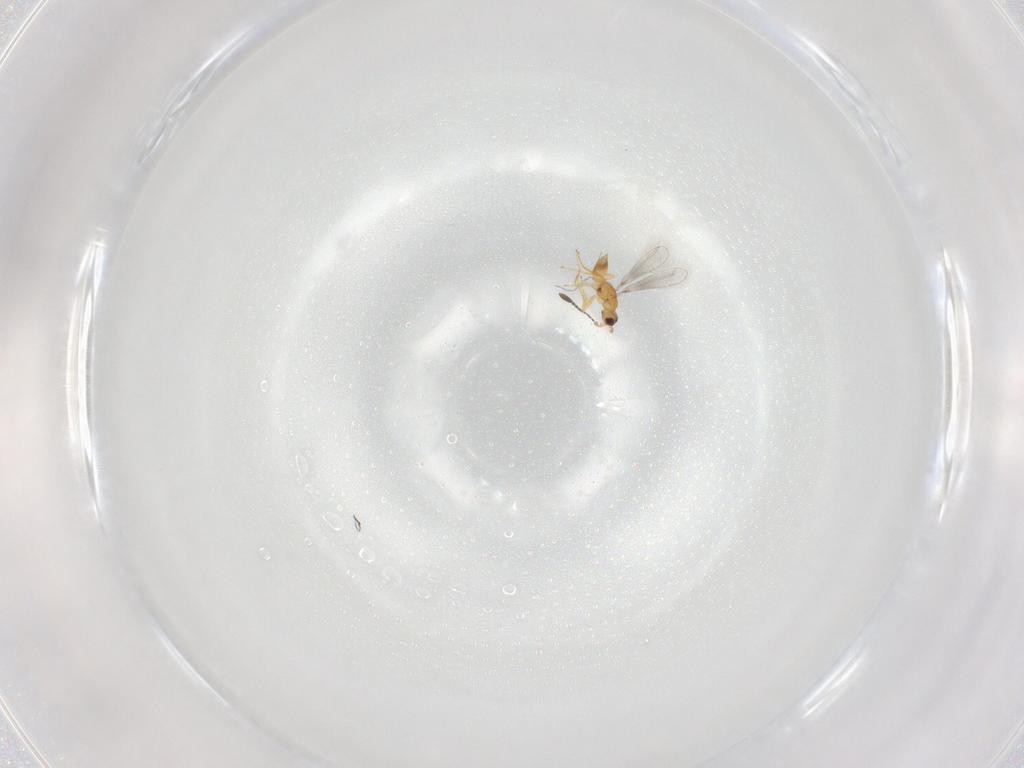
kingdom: Animalia
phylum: Arthropoda
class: Insecta
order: Hymenoptera
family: Mymaridae
